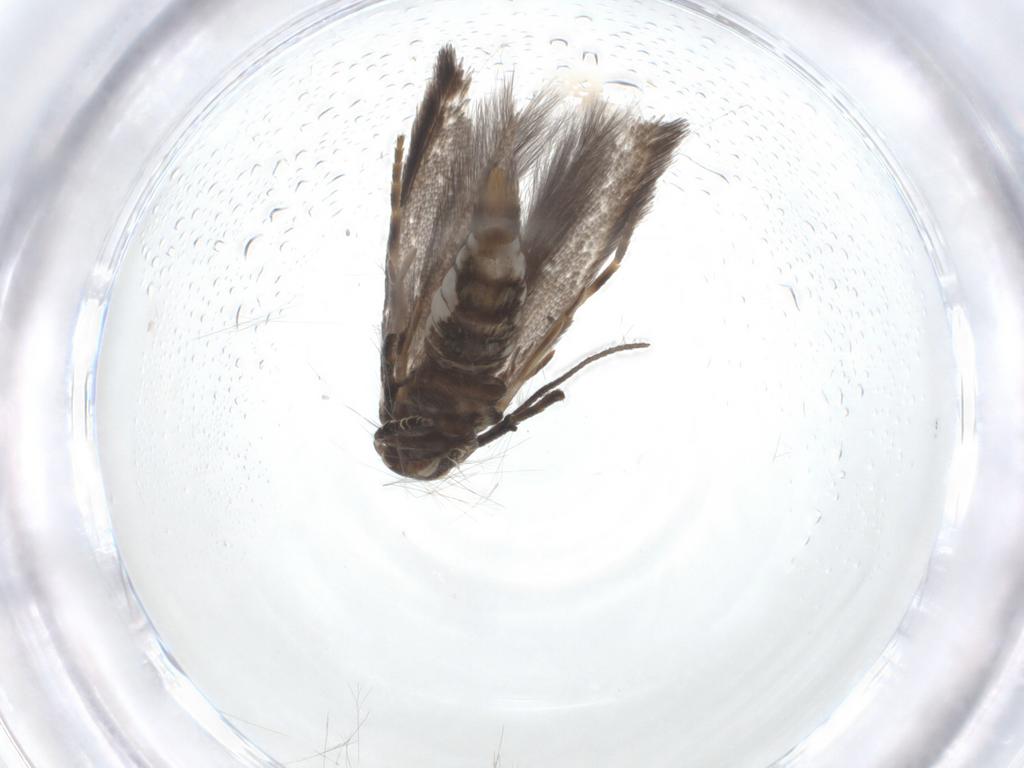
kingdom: Animalia
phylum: Arthropoda
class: Insecta
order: Lepidoptera
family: Elachistidae
